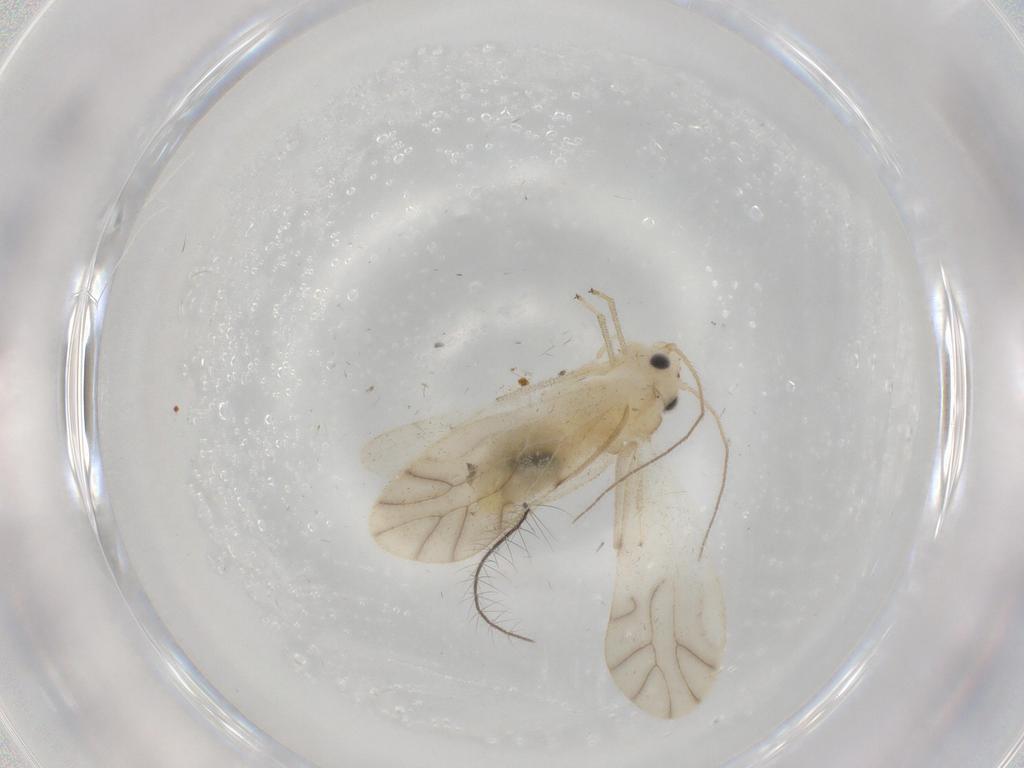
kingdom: Animalia
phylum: Arthropoda
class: Insecta
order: Psocodea
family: Caeciliusidae
